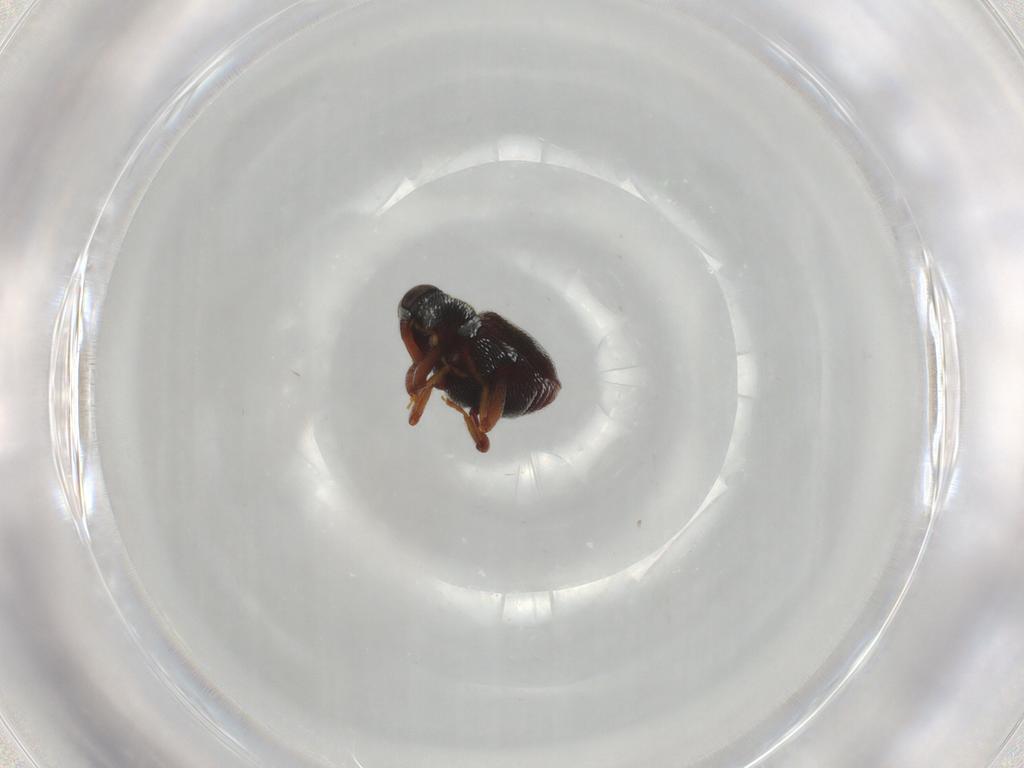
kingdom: Animalia
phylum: Arthropoda
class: Insecta
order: Coleoptera
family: Curculionidae
